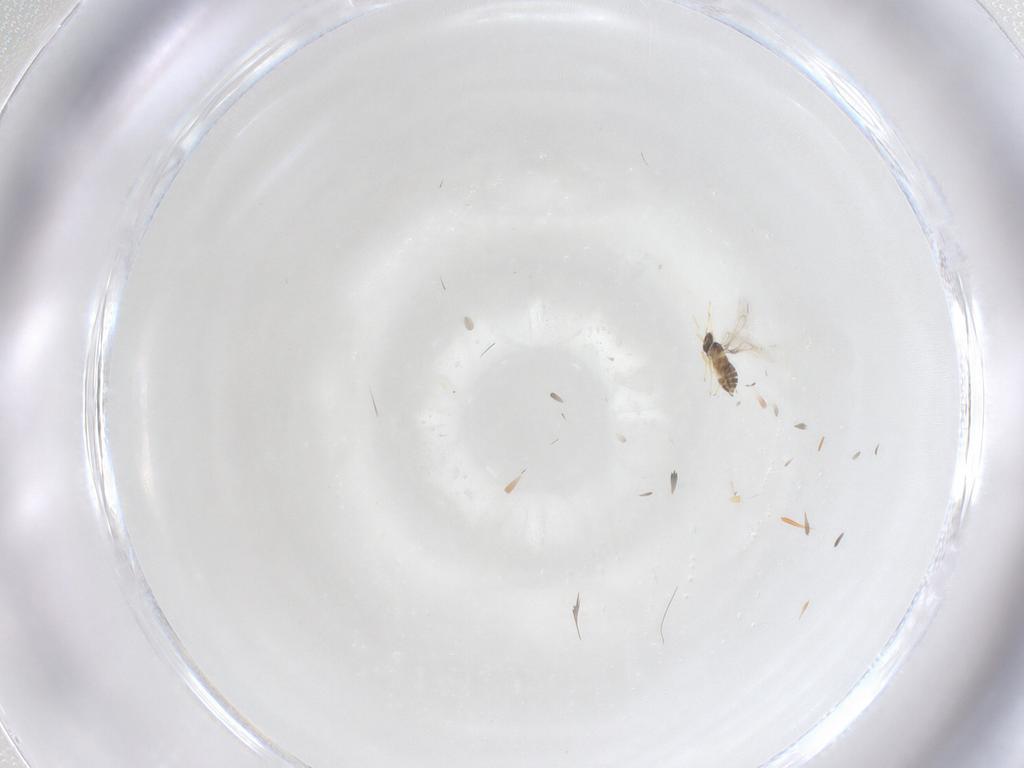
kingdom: Animalia
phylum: Arthropoda
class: Insecta
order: Hymenoptera
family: Mymaridae
